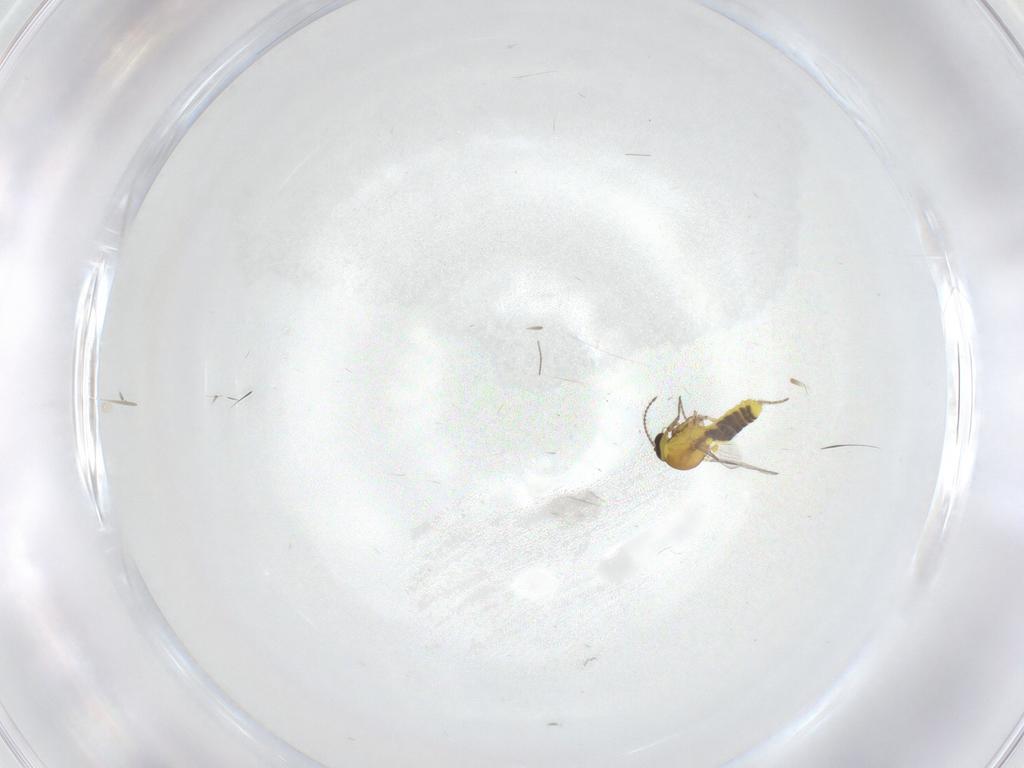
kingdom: Animalia
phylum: Arthropoda
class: Insecta
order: Diptera
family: Chironomidae
